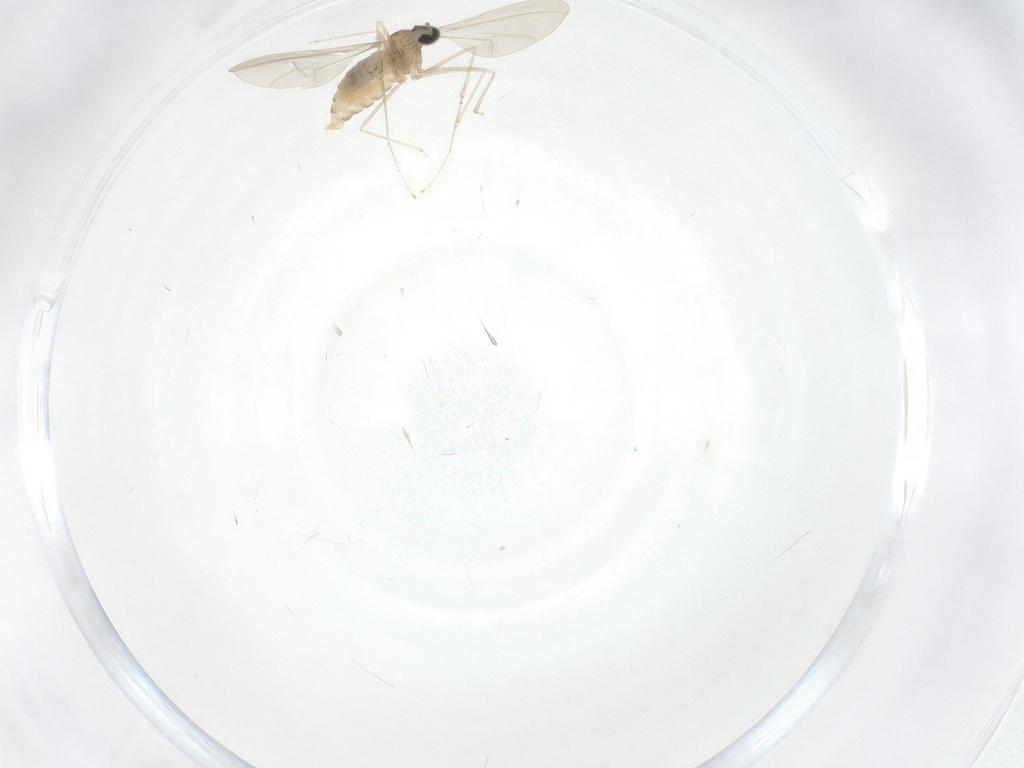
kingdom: Animalia
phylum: Arthropoda
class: Insecta
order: Diptera
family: Cecidomyiidae
